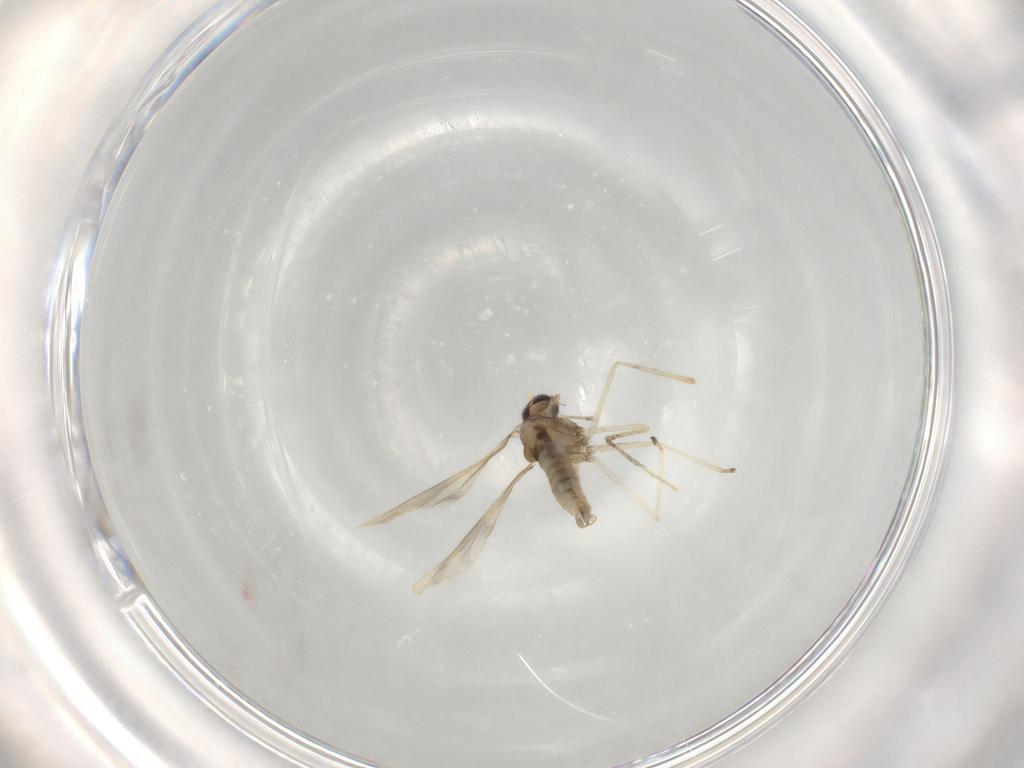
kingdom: Animalia
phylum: Arthropoda
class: Insecta
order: Diptera
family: Cecidomyiidae
